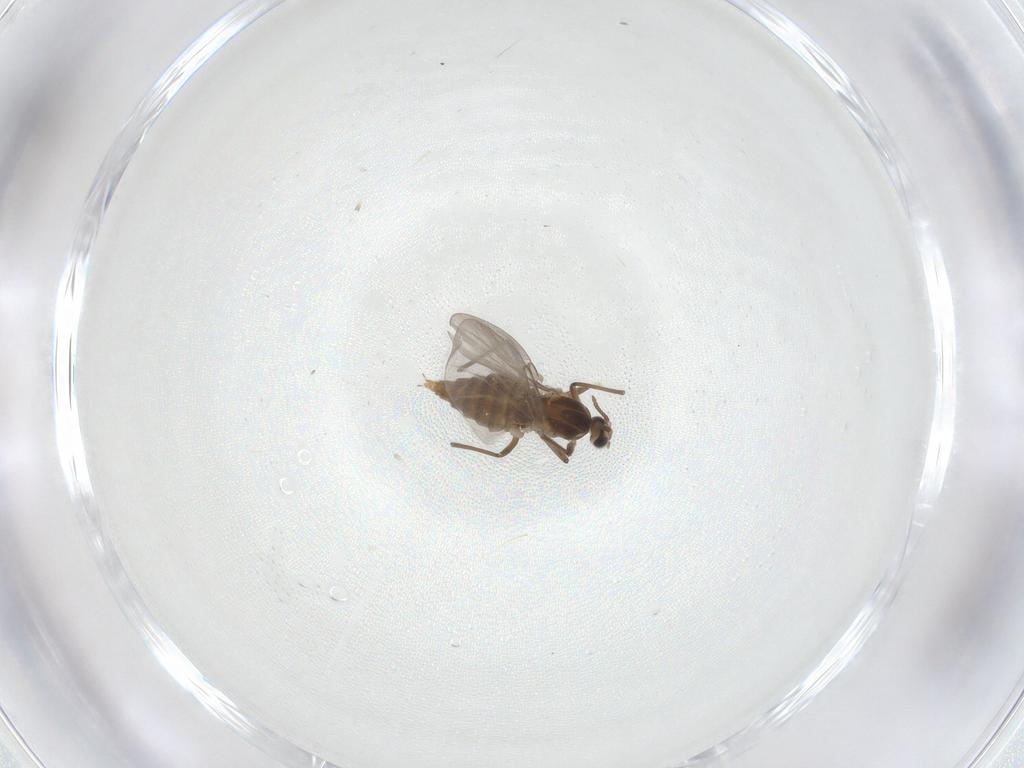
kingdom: Animalia
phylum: Arthropoda
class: Insecta
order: Diptera
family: Cecidomyiidae
